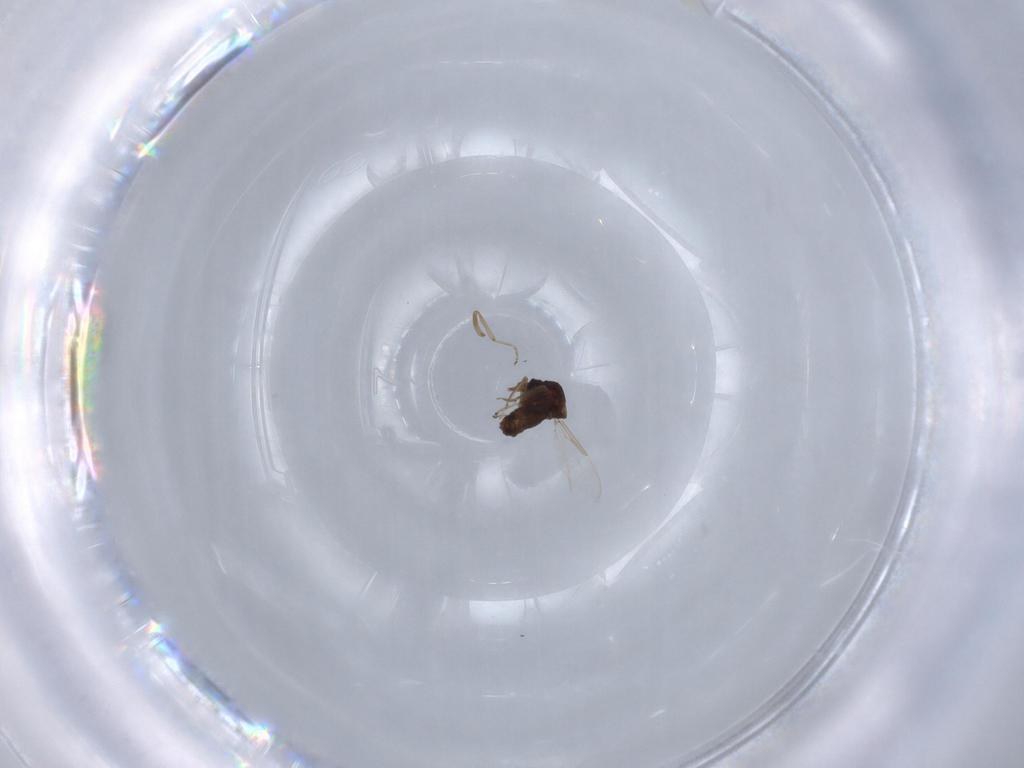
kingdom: Animalia
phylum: Arthropoda
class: Insecta
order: Diptera
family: Ceratopogonidae
